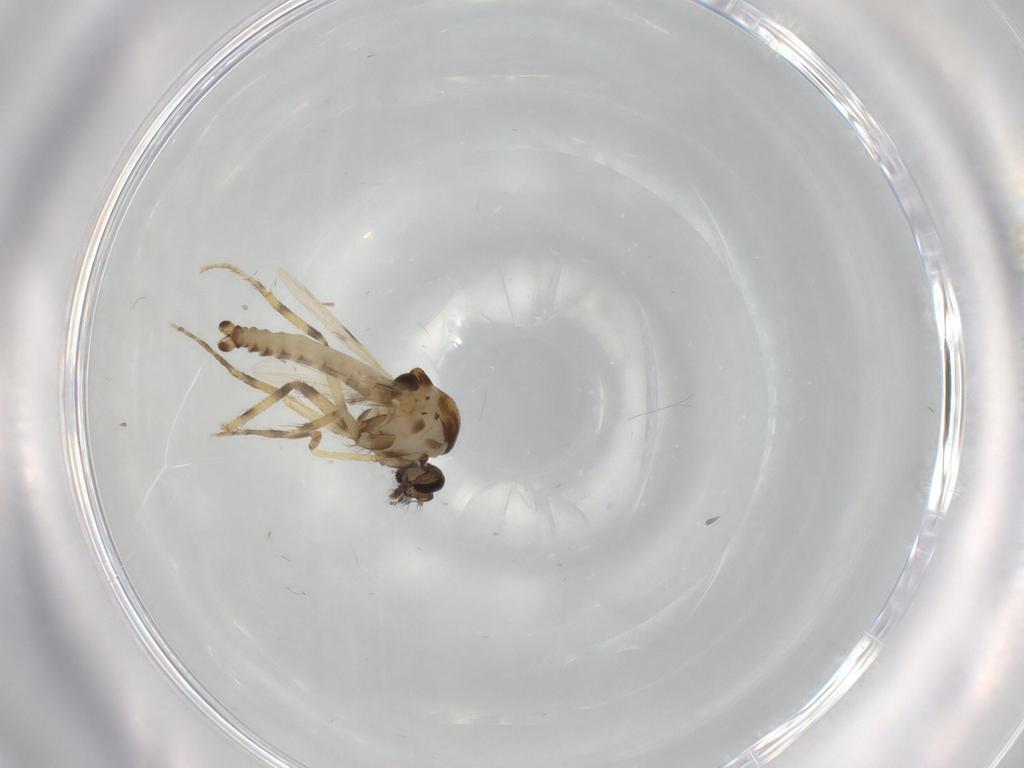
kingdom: Animalia
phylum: Arthropoda
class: Insecta
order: Diptera
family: Ceratopogonidae
